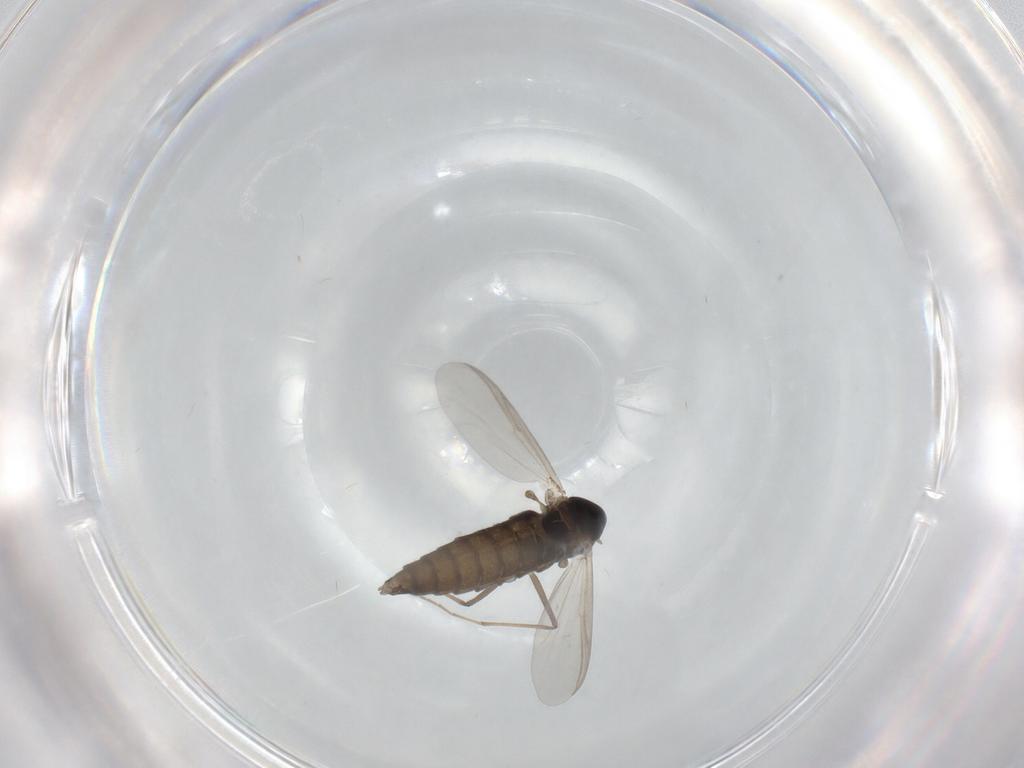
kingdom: Animalia
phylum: Arthropoda
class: Insecta
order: Diptera
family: Chironomidae
